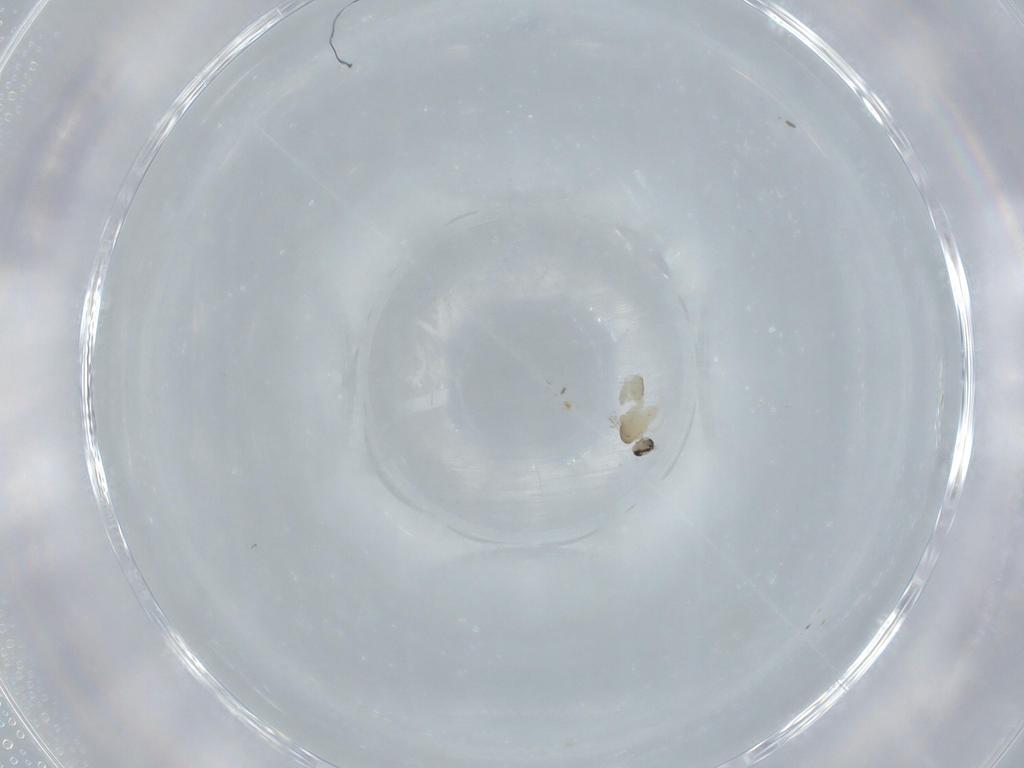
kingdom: Animalia
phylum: Arthropoda
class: Insecta
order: Diptera
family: Cecidomyiidae
